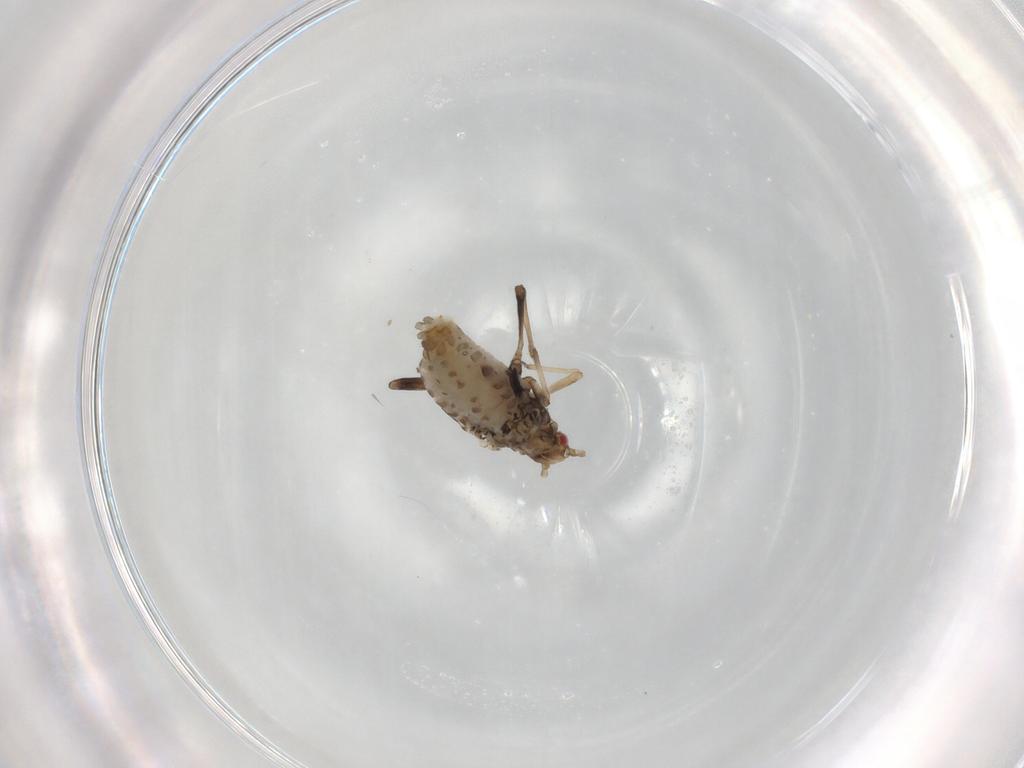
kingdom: Animalia
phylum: Arthropoda
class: Insecta
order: Hemiptera
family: Aphididae
